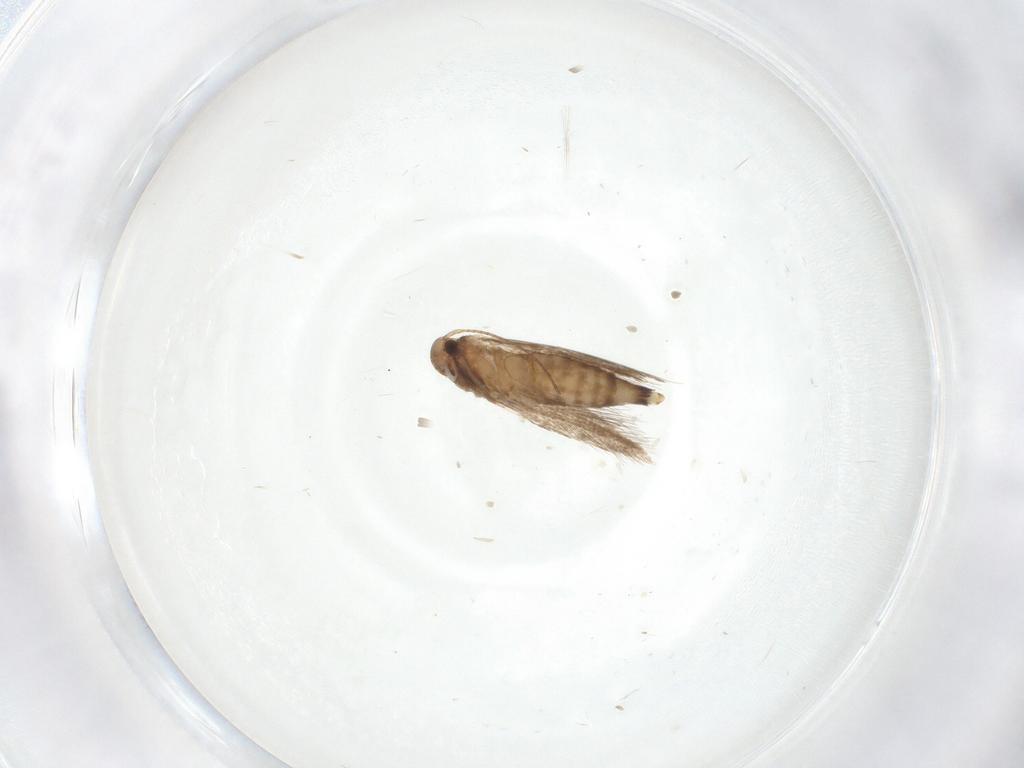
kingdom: Animalia
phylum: Arthropoda
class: Insecta
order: Lepidoptera
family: Gracillariidae
